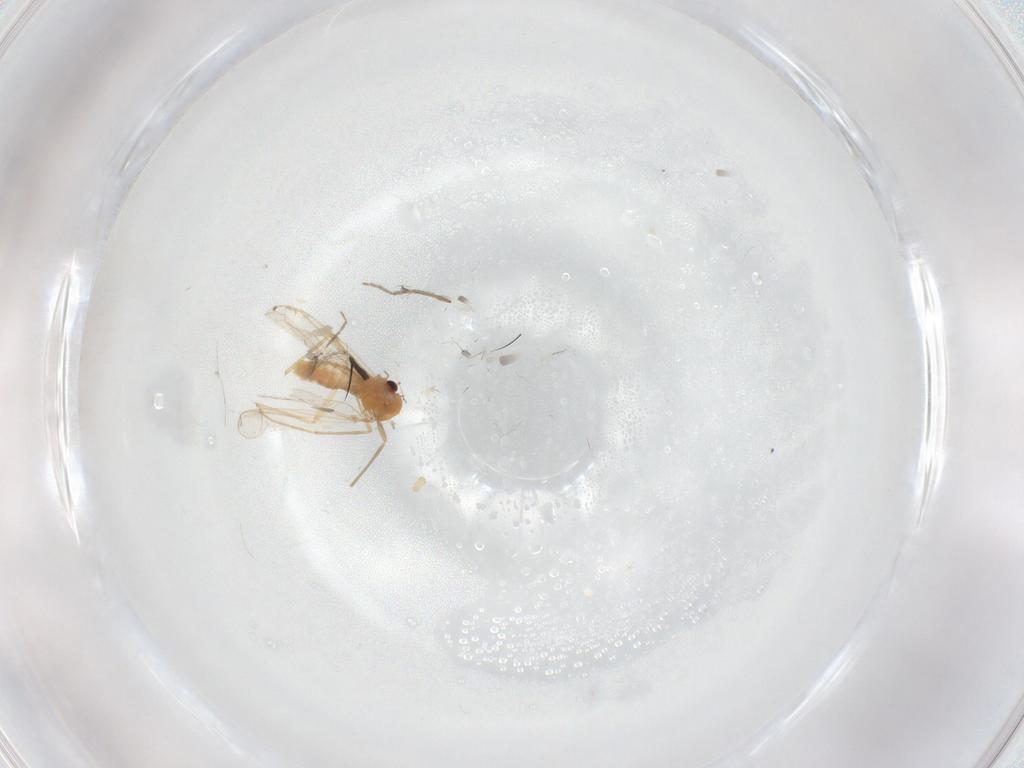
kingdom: Animalia
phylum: Arthropoda
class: Insecta
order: Diptera
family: Chironomidae
